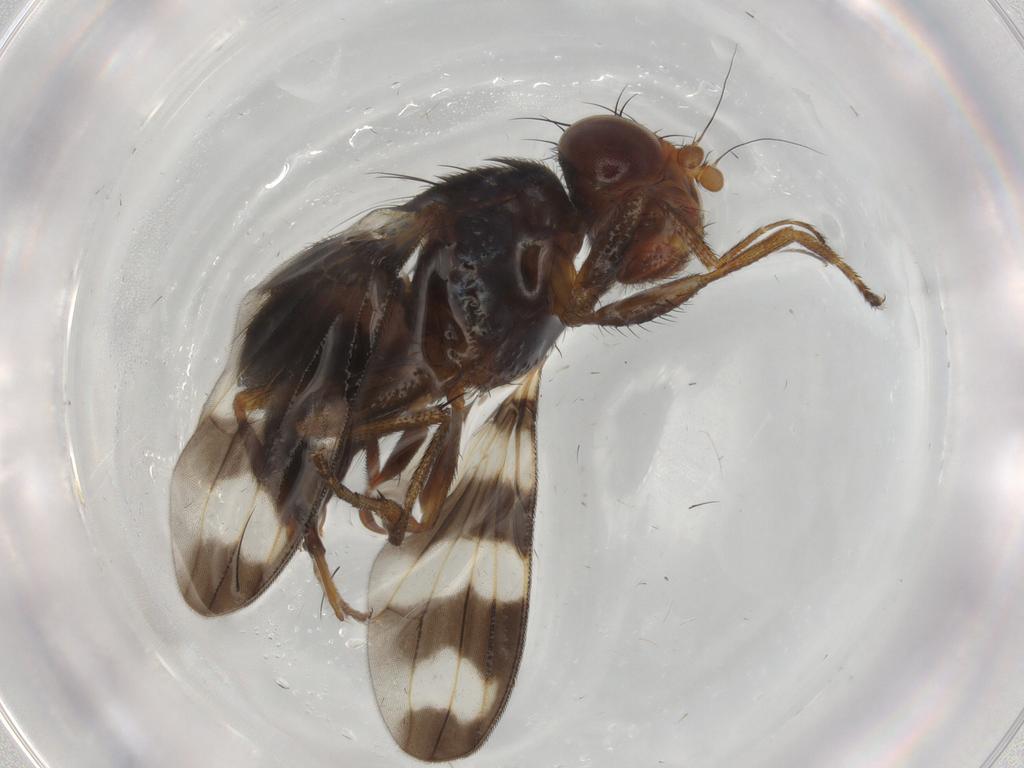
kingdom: Animalia
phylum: Arthropoda
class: Insecta
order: Diptera
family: Ulidiidae
